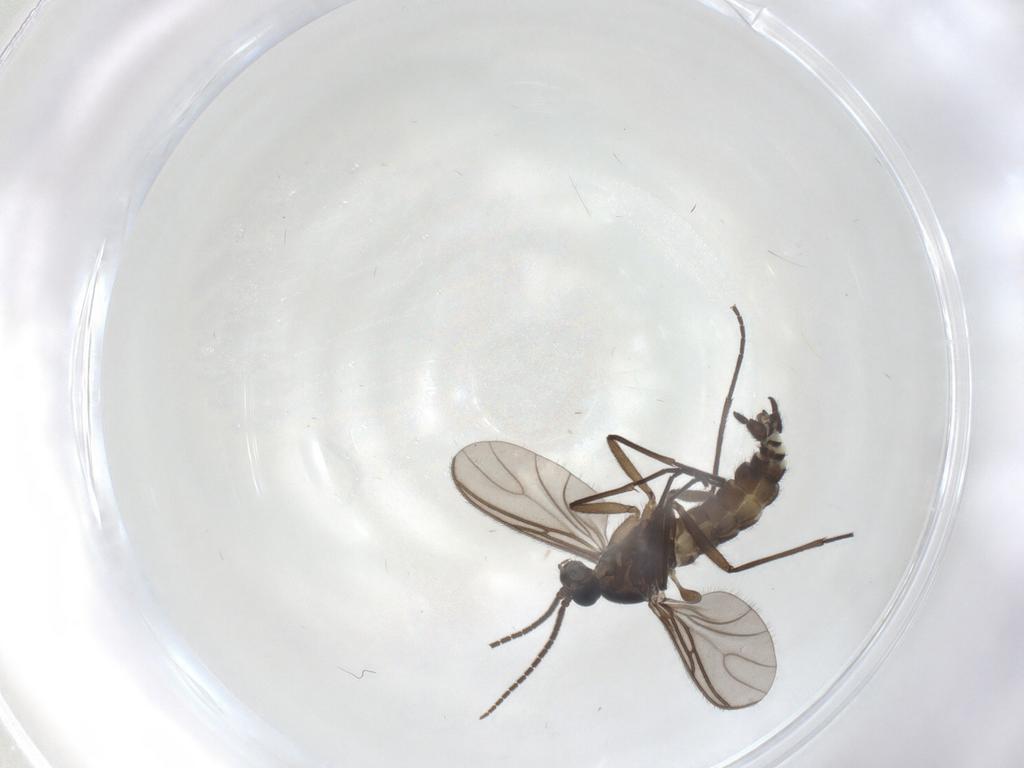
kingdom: Animalia
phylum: Arthropoda
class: Insecta
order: Diptera
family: Sciaridae
